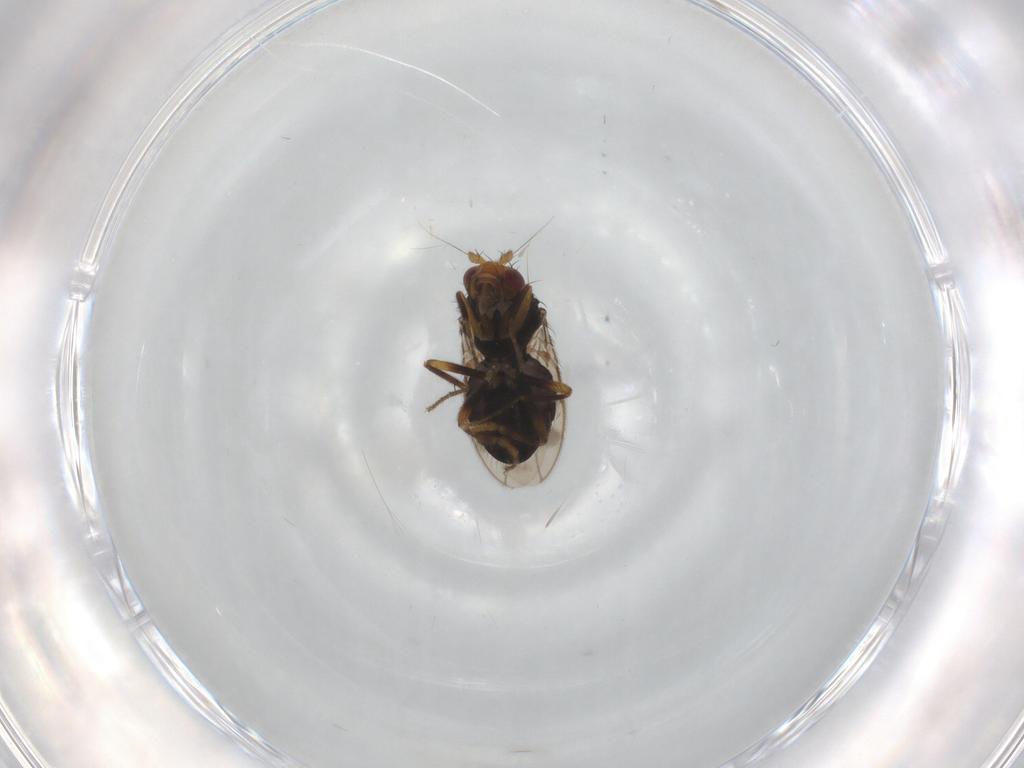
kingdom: Animalia
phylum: Arthropoda
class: Insecta
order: Diptera
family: Sphaeroceridae
